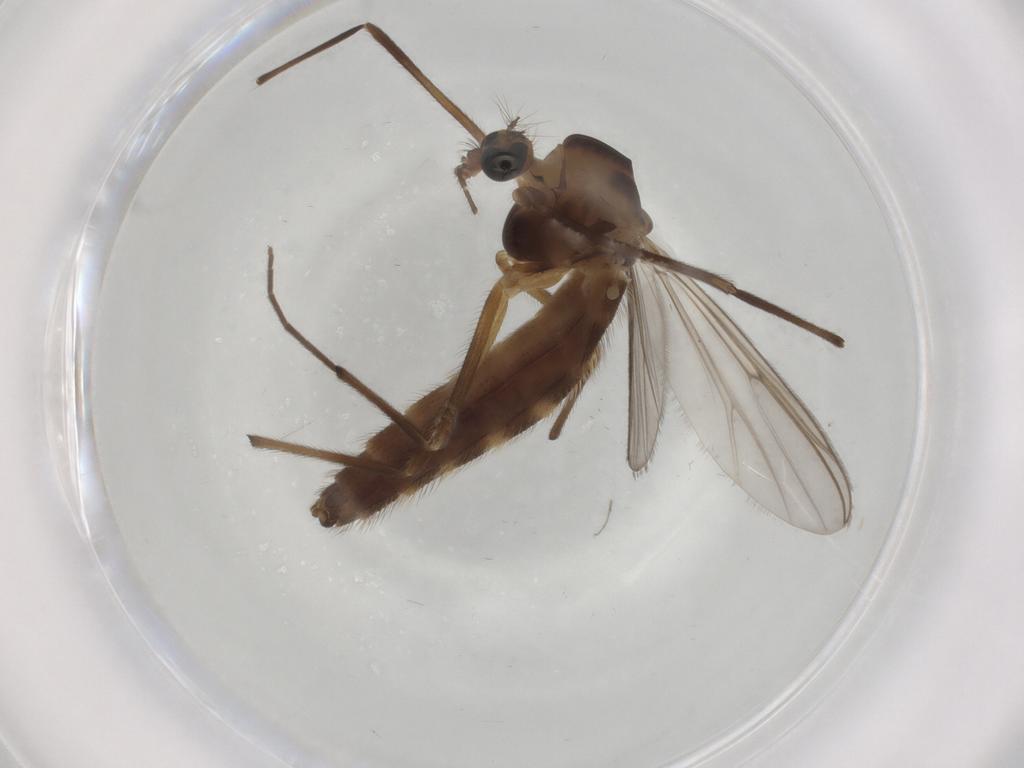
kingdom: Animalia
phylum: Arthropoda
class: Insecta
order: Diptera
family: Chironomidae
